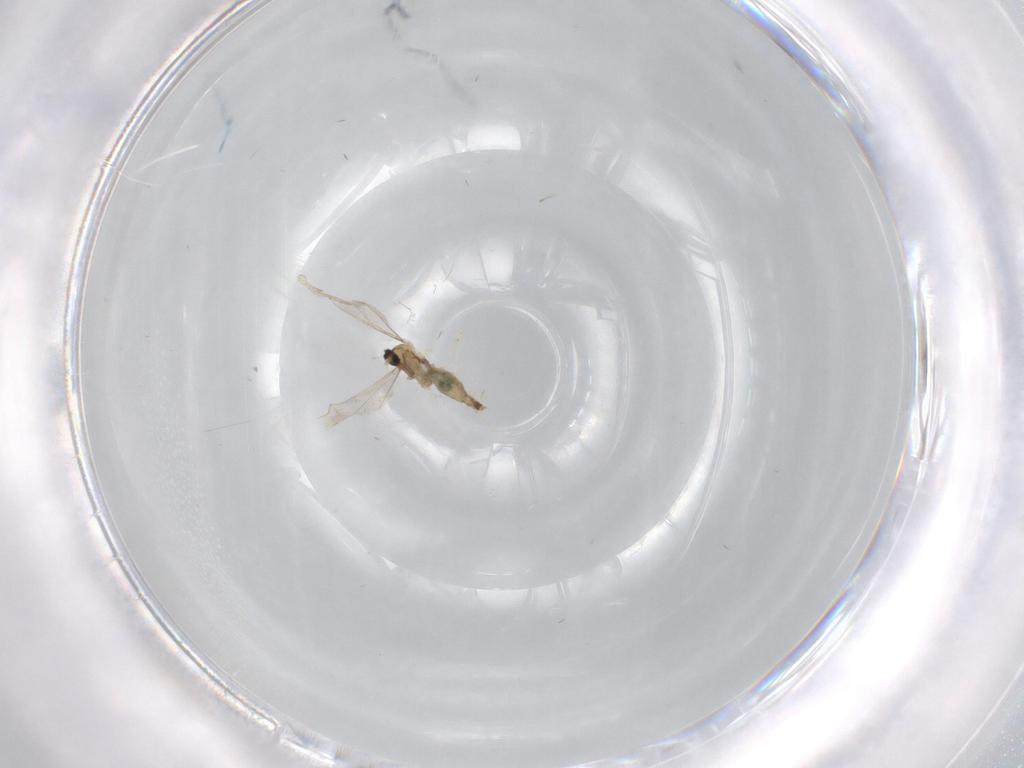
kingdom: Animalia
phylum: Arthropoda
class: Insecta
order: Diptera
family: Cecidomyiidae
